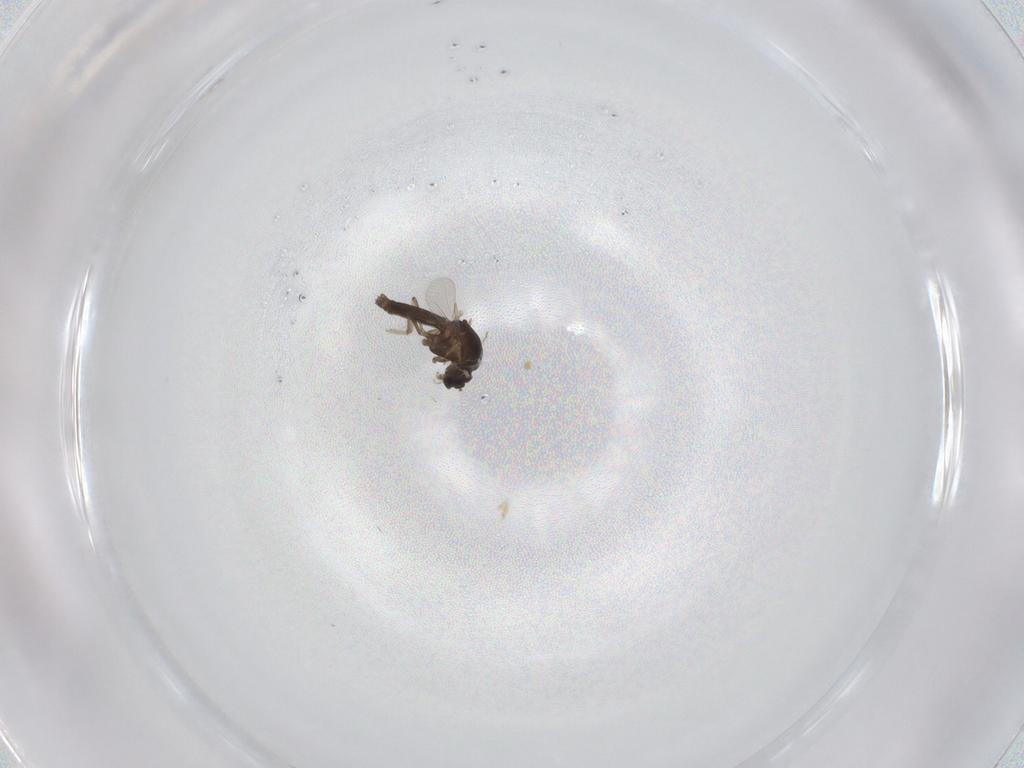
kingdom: Animalia
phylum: Arthropoda
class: Insecta
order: Diptera
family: Ceratopogonidae
